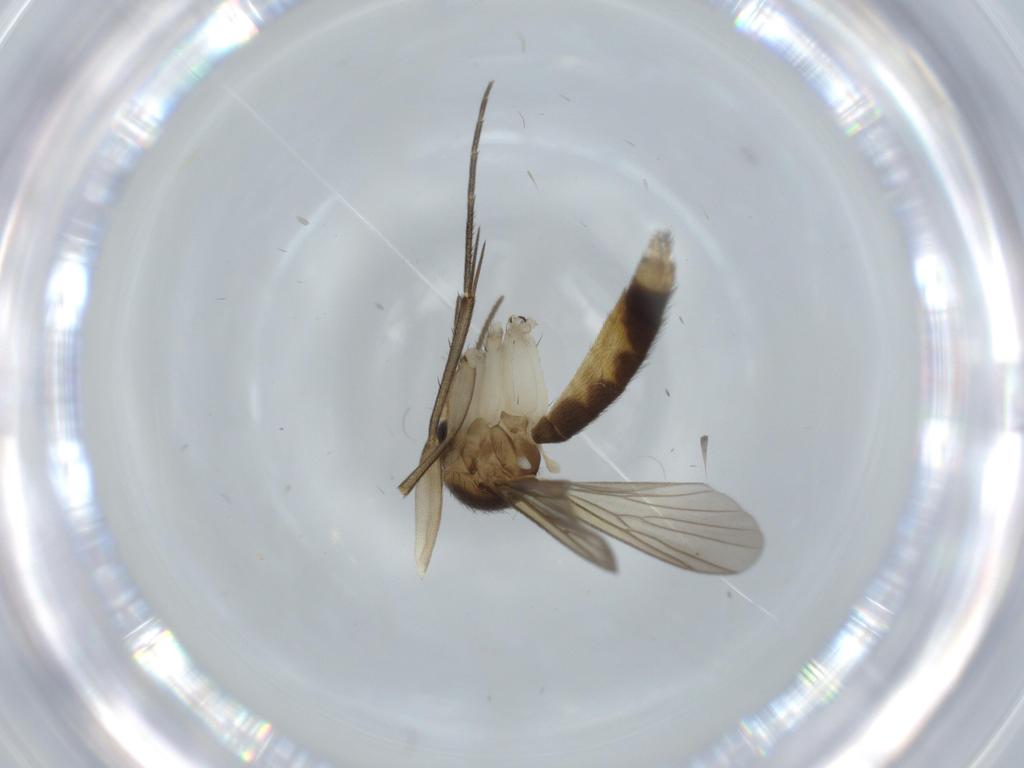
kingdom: Animalia
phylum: Arthropoda
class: Insecta
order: Diptera
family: Mycetophilidae
